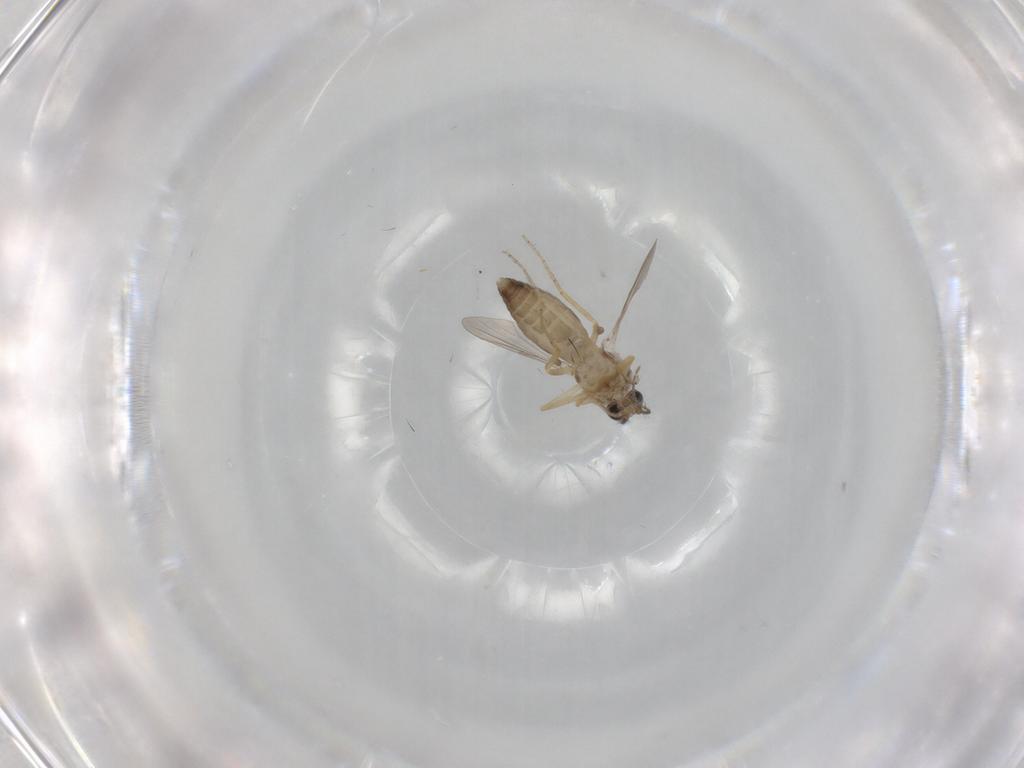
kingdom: Animalia
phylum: Arthropoda
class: Insecta
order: Diptera
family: Ceratopogonidae
